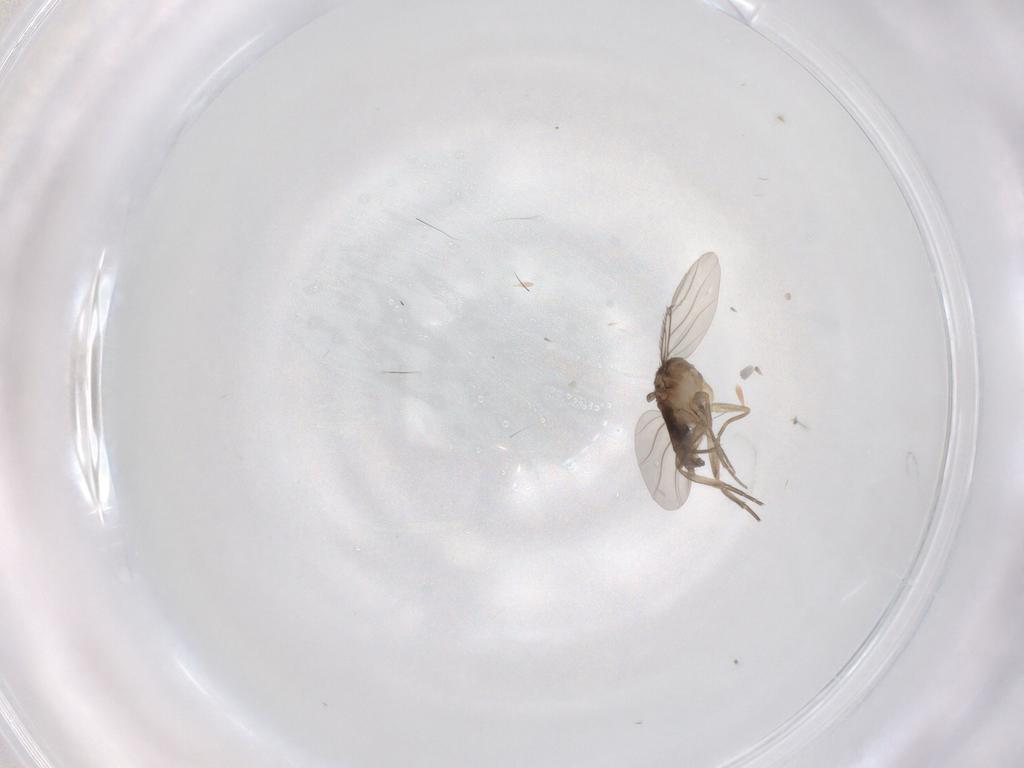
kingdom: Animalia
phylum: Arthropoda
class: Insecta
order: Diptera
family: Phoridae
